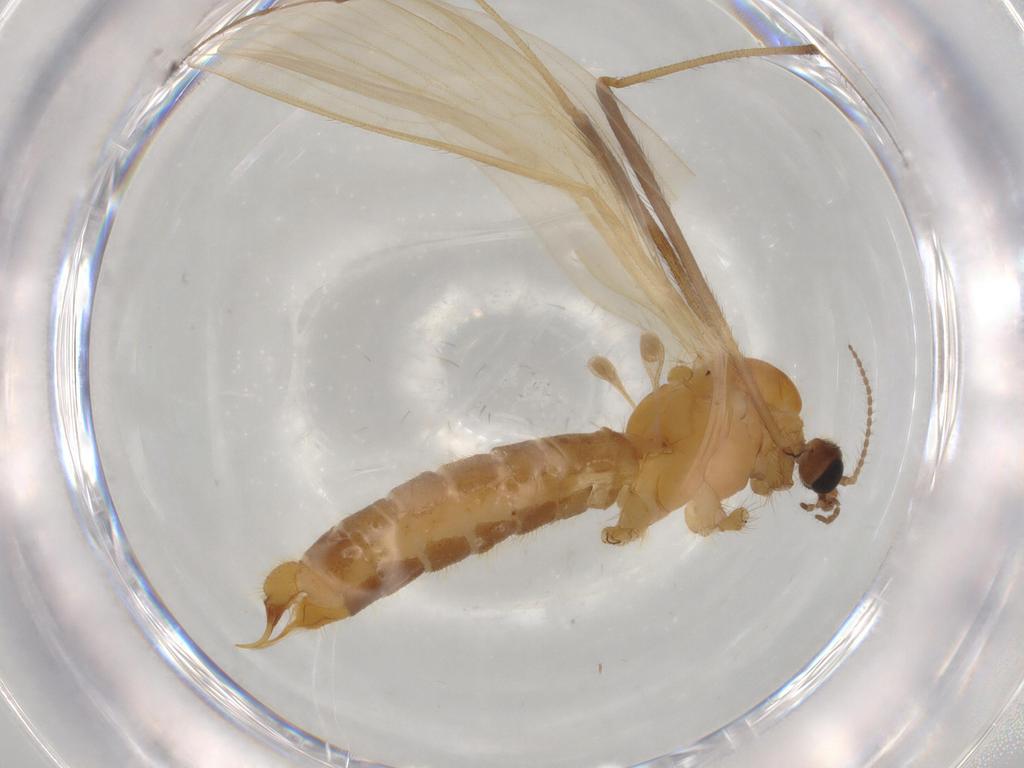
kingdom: Animalia
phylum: Arthropoda
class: Insecta
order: Diptera
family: Drosophilidae
